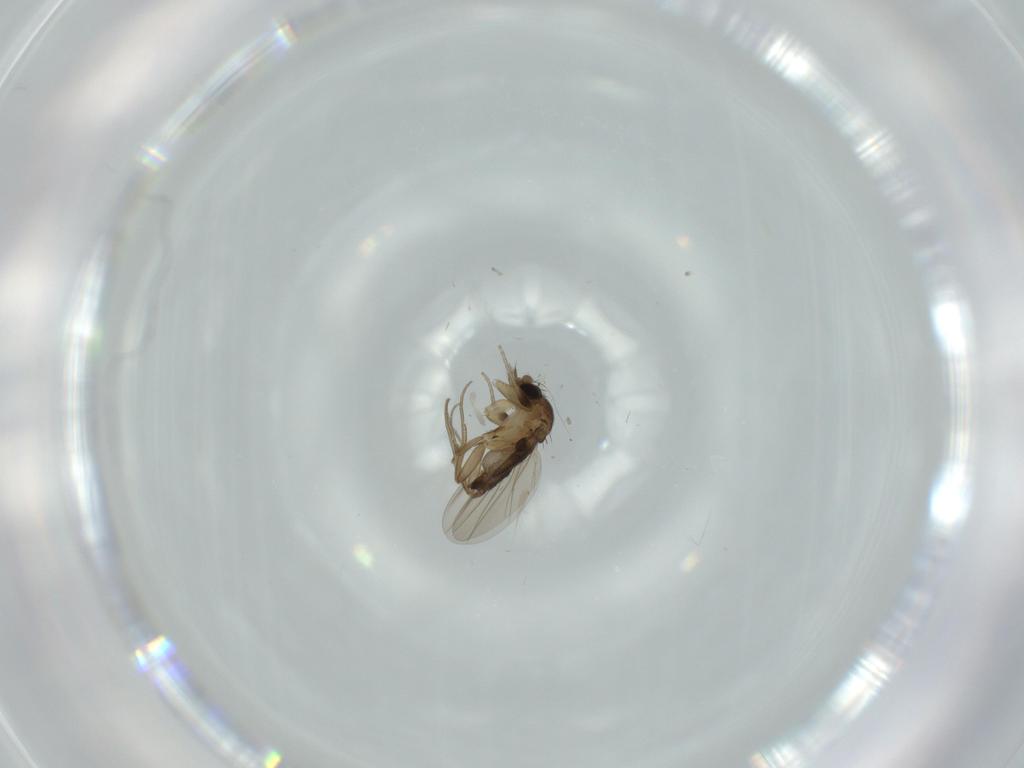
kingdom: Animalia
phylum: Arthropoda
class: Insecta
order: Diptera
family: Phoridae
